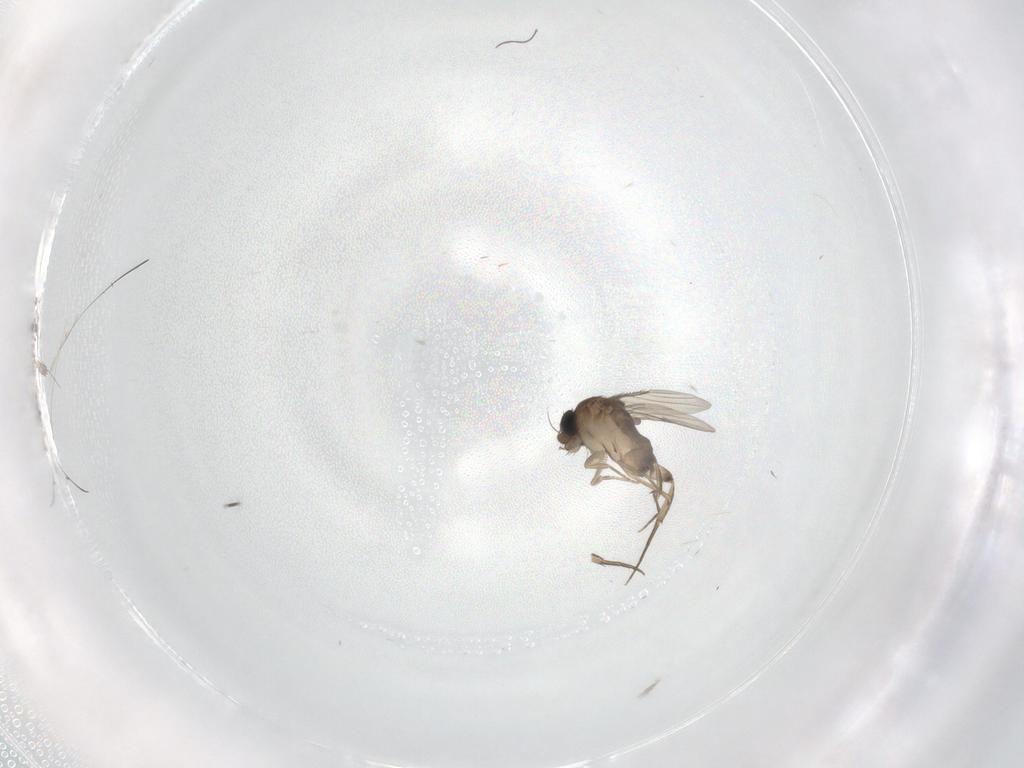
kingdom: Animalia
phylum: Arthropoda
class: Insecta
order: Diptera
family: Phoridae
